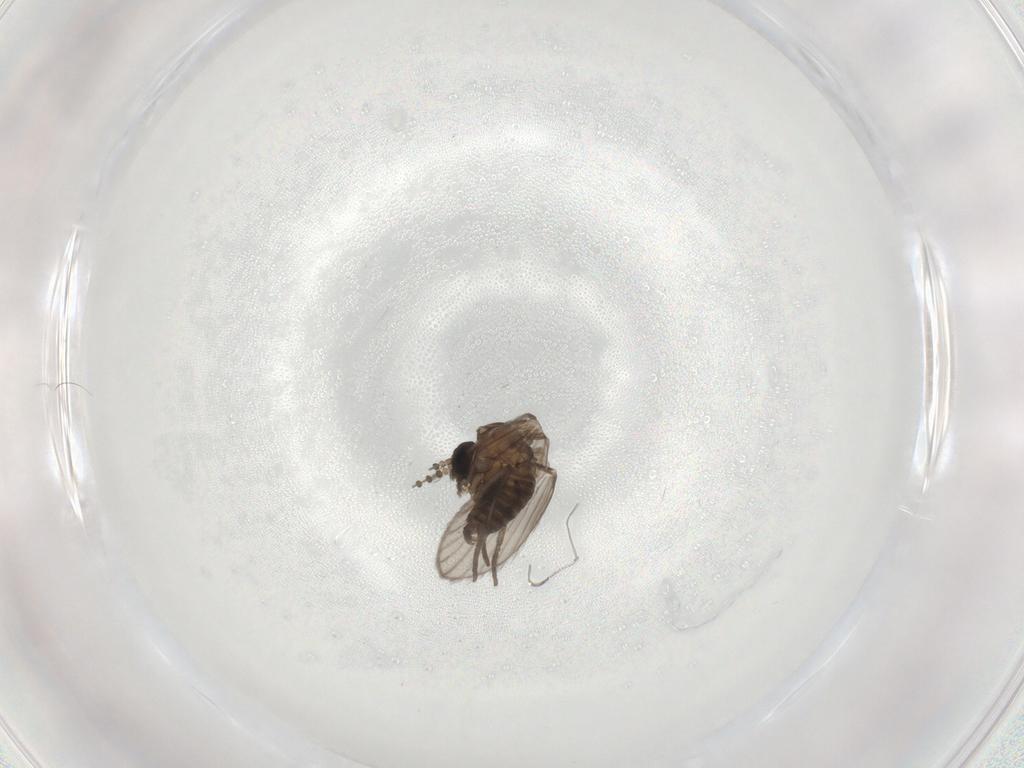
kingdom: Animalia
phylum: Arthropoda
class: Insecta
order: Diptera
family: Psychodidae
